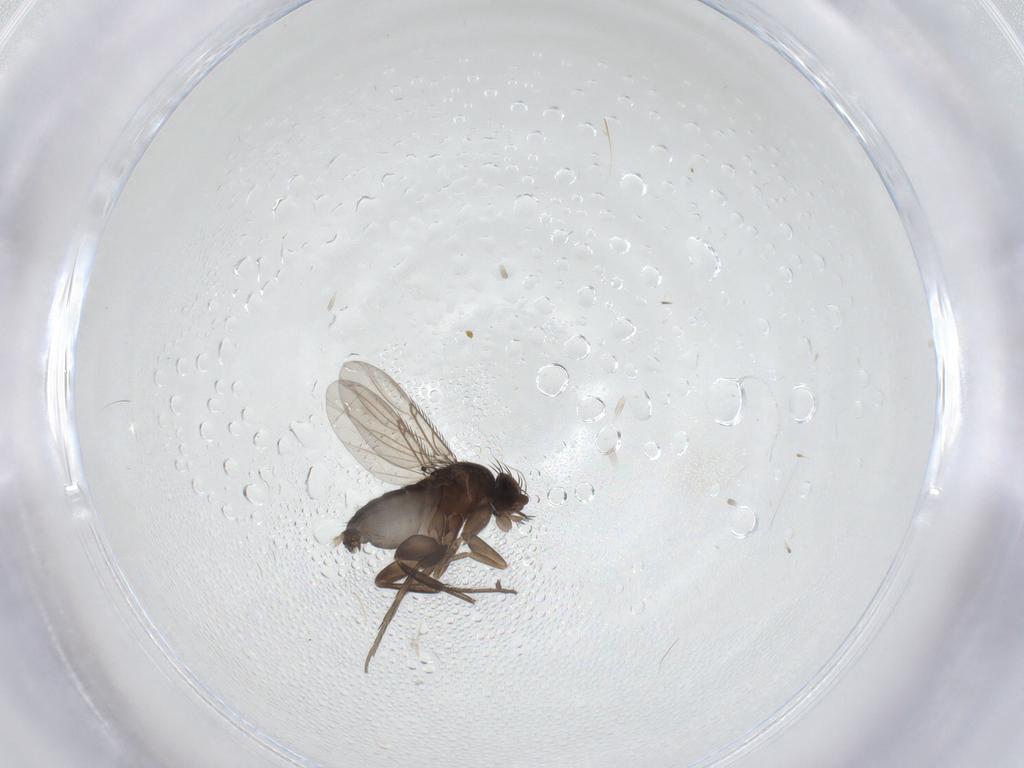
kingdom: Animalia
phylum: Arthropoda
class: Insecta
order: Diptera
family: Phoridae
